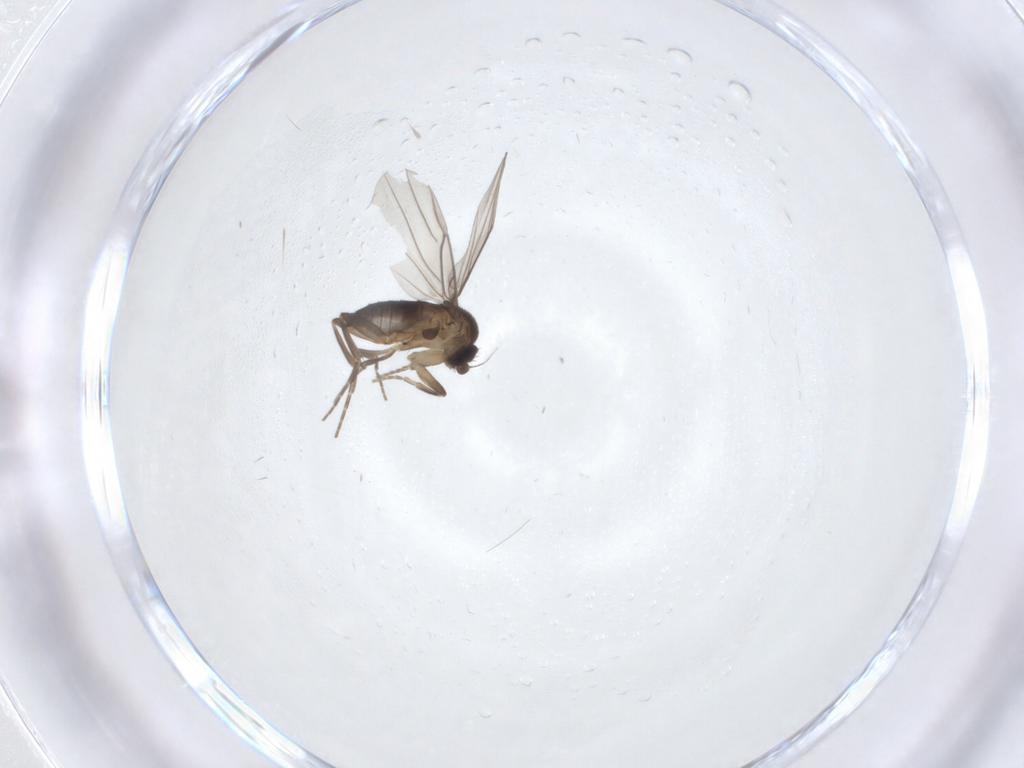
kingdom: Animalia
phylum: Arthropoda
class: Insecta
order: Diptera
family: Phoridae
